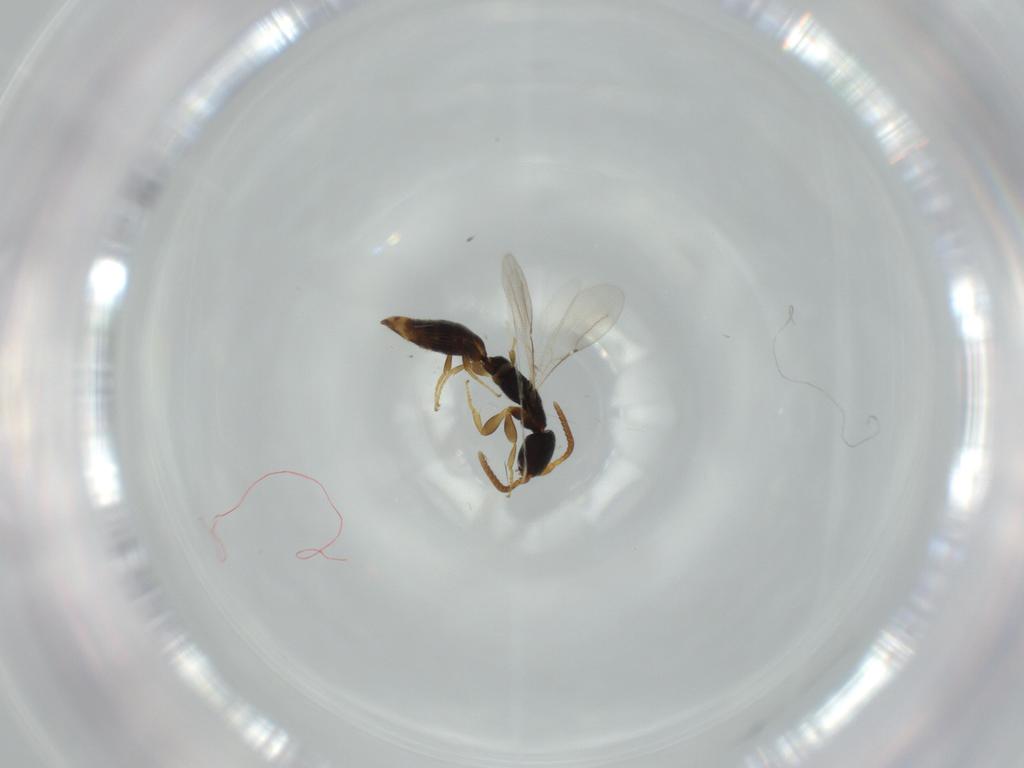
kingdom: Animalia
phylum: Arthropoda
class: Insecta
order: Hymenoptera
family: Bethylidae
